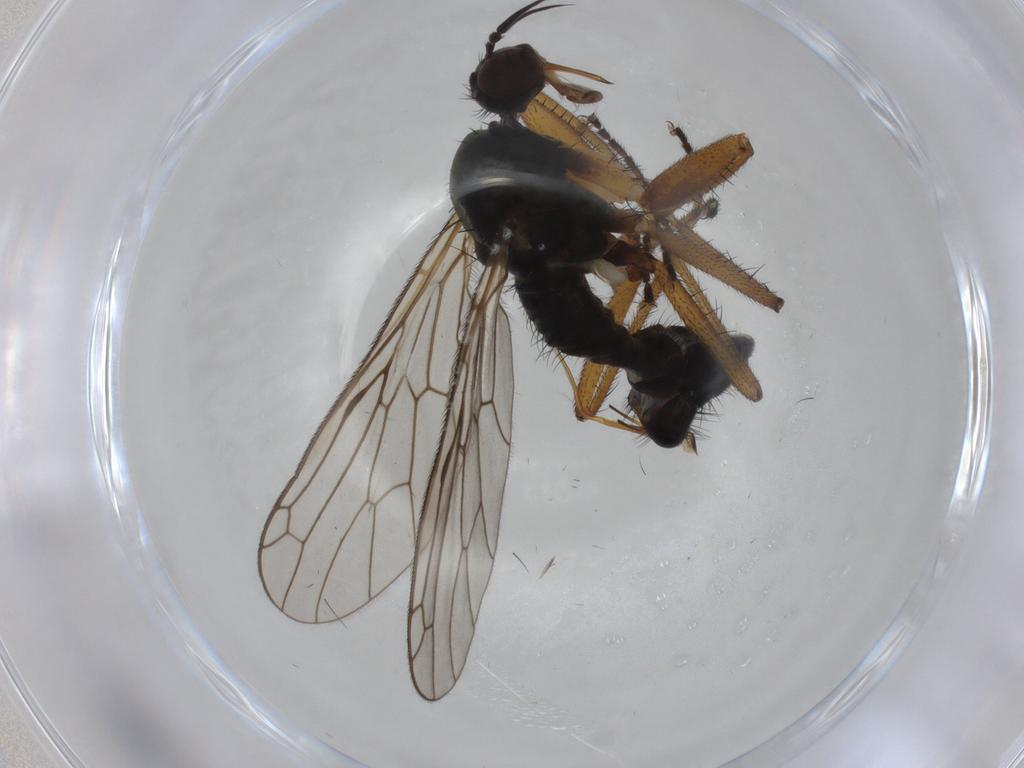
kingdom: Animalia
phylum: Arthropoda
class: Insecta
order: Diptera
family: Empididae
